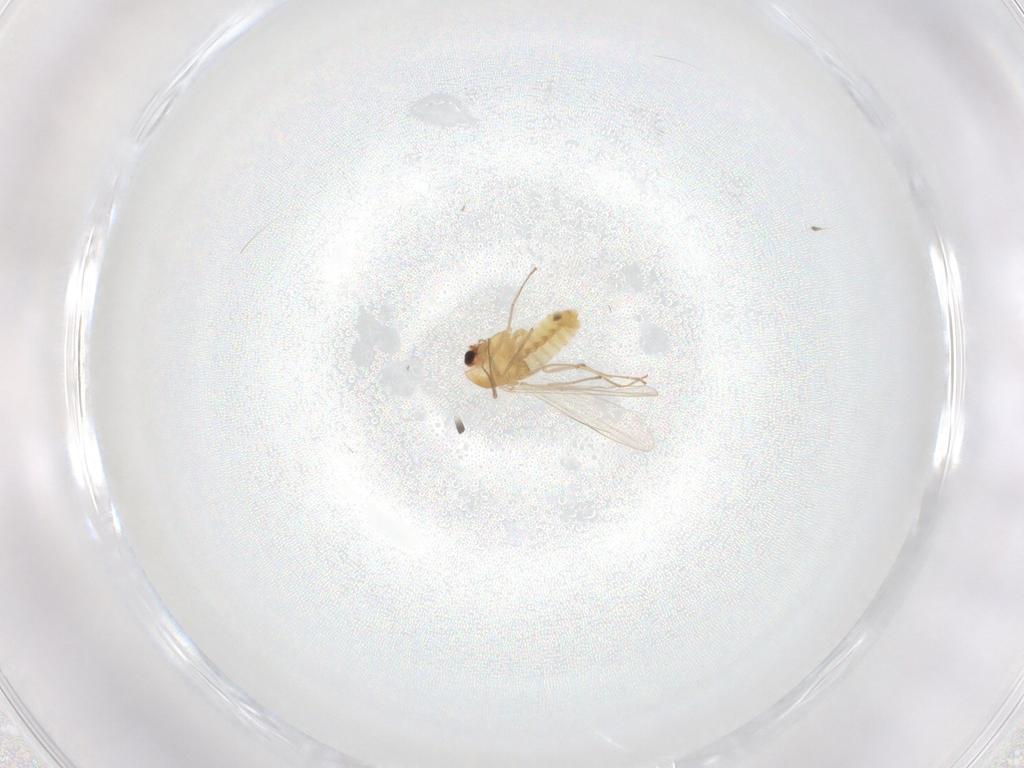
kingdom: Animalia
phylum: Arthropoda
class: Insecta
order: Diptera
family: Chironomidae
